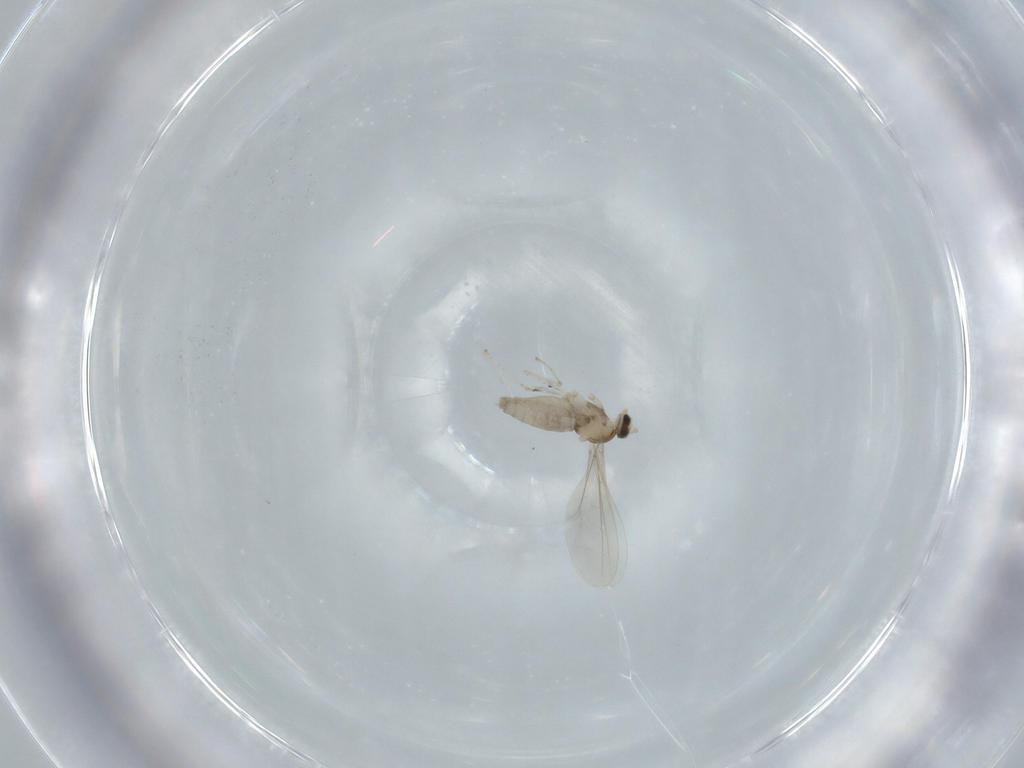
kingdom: Animalia
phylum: Arthropoda
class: Insecta
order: Diptera
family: Cecidomyiidae
